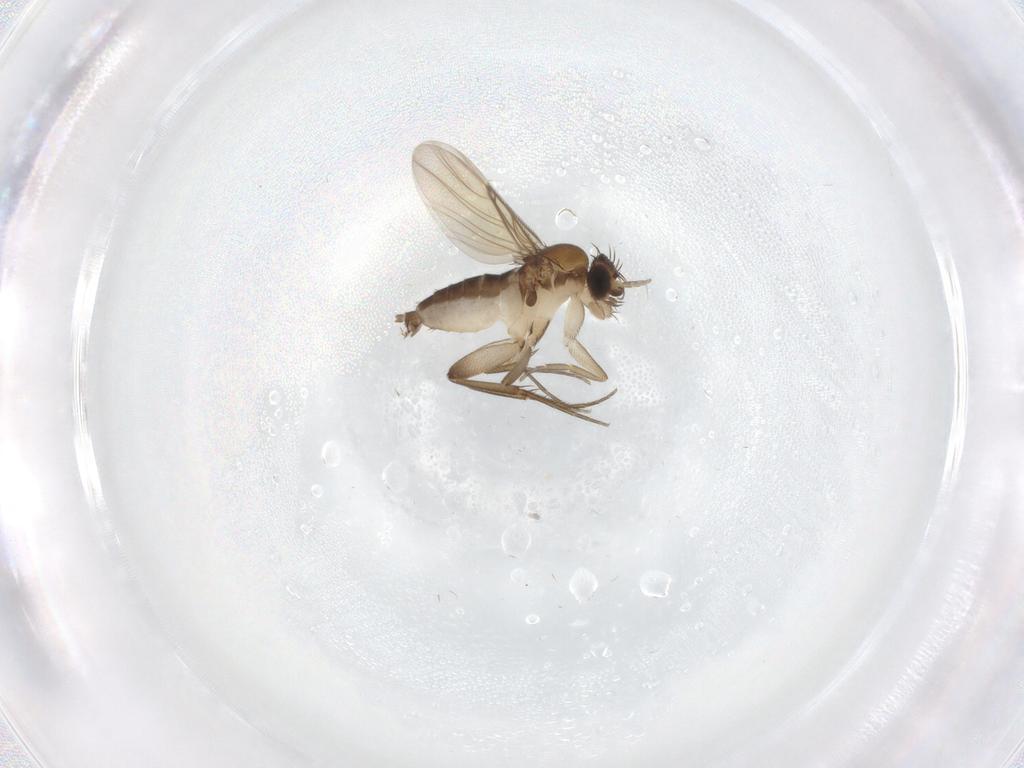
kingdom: Animalia
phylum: Arthropoda
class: Insecta
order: Diptera
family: Phoridae
